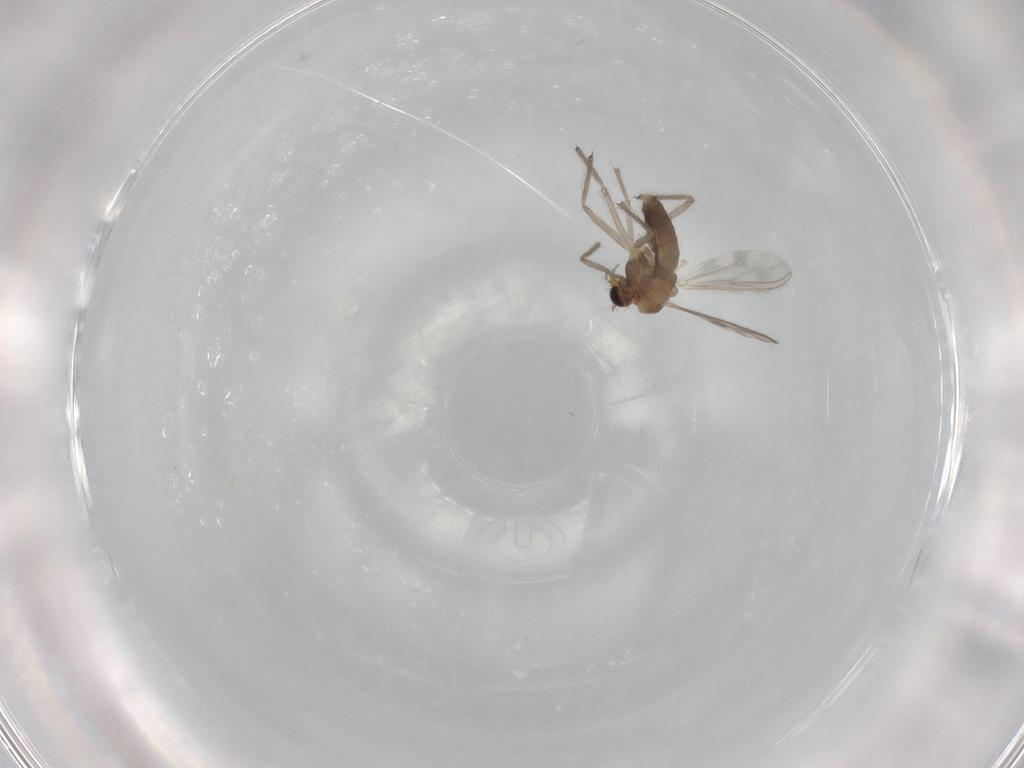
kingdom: Animalia
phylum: Arthropoda
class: Insecta
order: Diptera
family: Chironomidae
